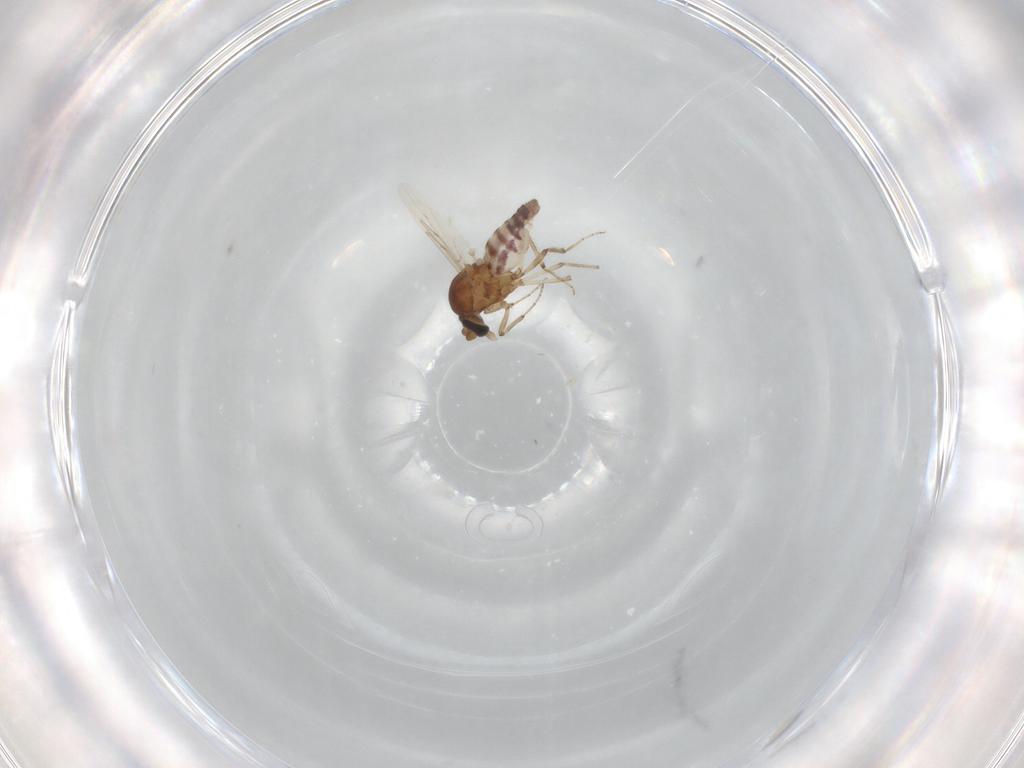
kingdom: Animalia
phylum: Arthropoda
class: Insecta
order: Diptera
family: Ceratopogonidae
